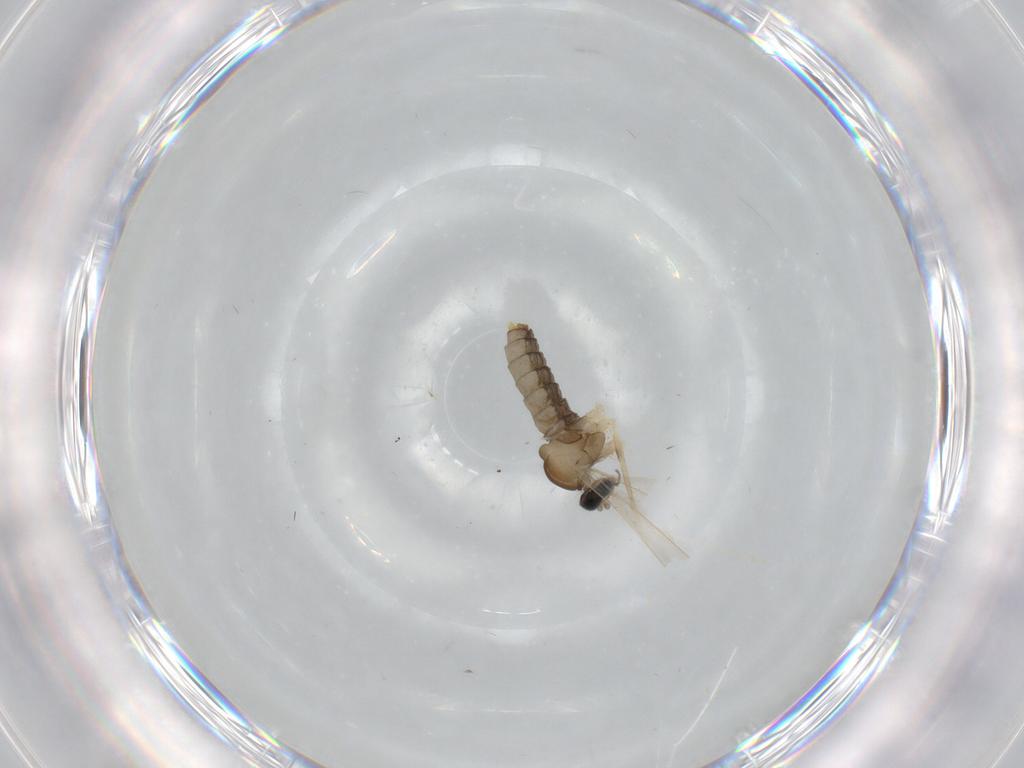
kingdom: Animalia
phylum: Arthropoda
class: Insecta
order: Diptera
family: Cecidomyiidae
